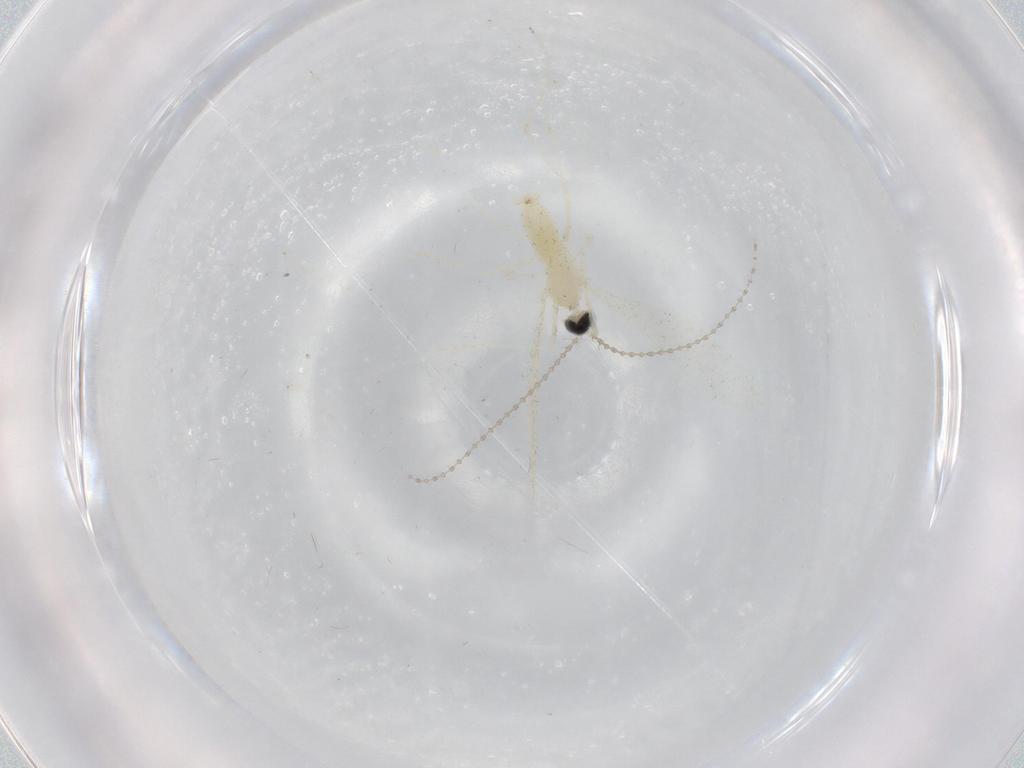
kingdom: Animalia
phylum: Arthropoda
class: Insecta
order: Diptera
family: Cecidomyiidae
